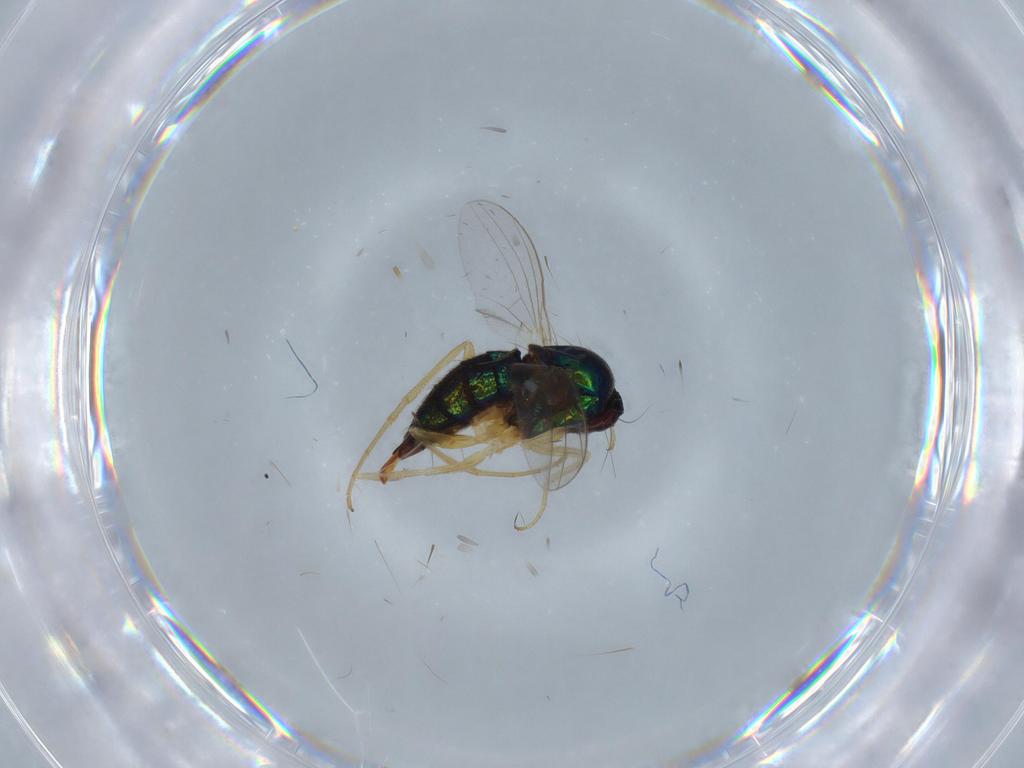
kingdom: Animalia
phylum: Arthropoda
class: Insecta
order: Diptera
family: Dolichopodidae
